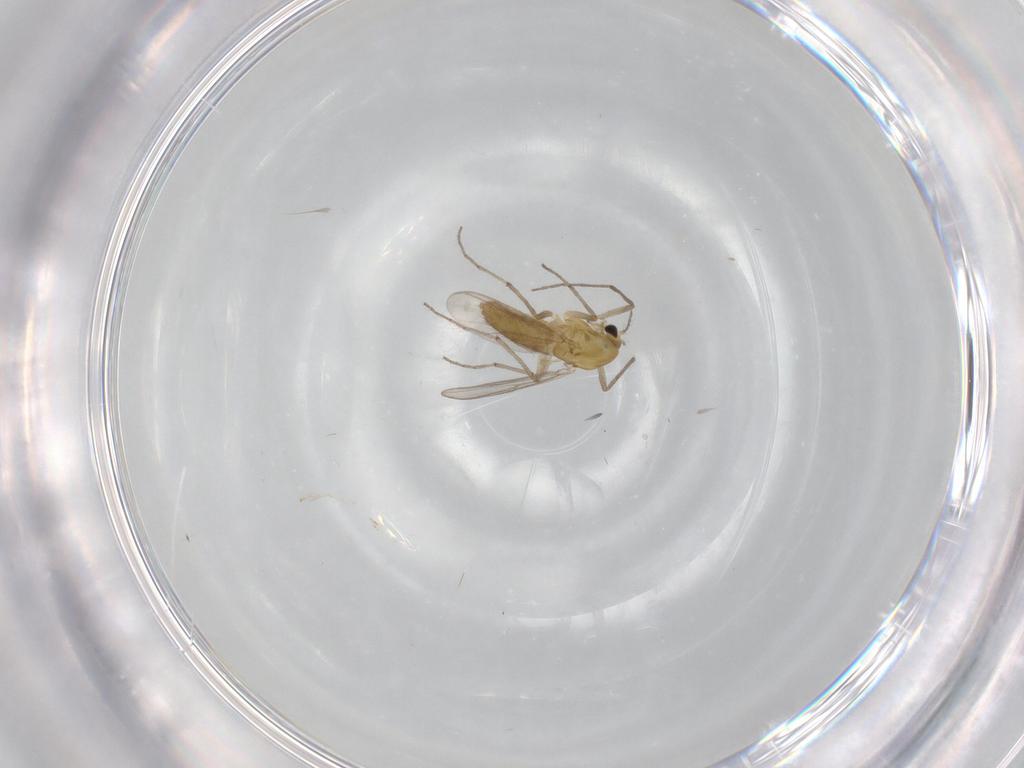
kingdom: Animalia
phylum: Arthropoda
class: Insecta
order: Diptera
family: Chironomidae
